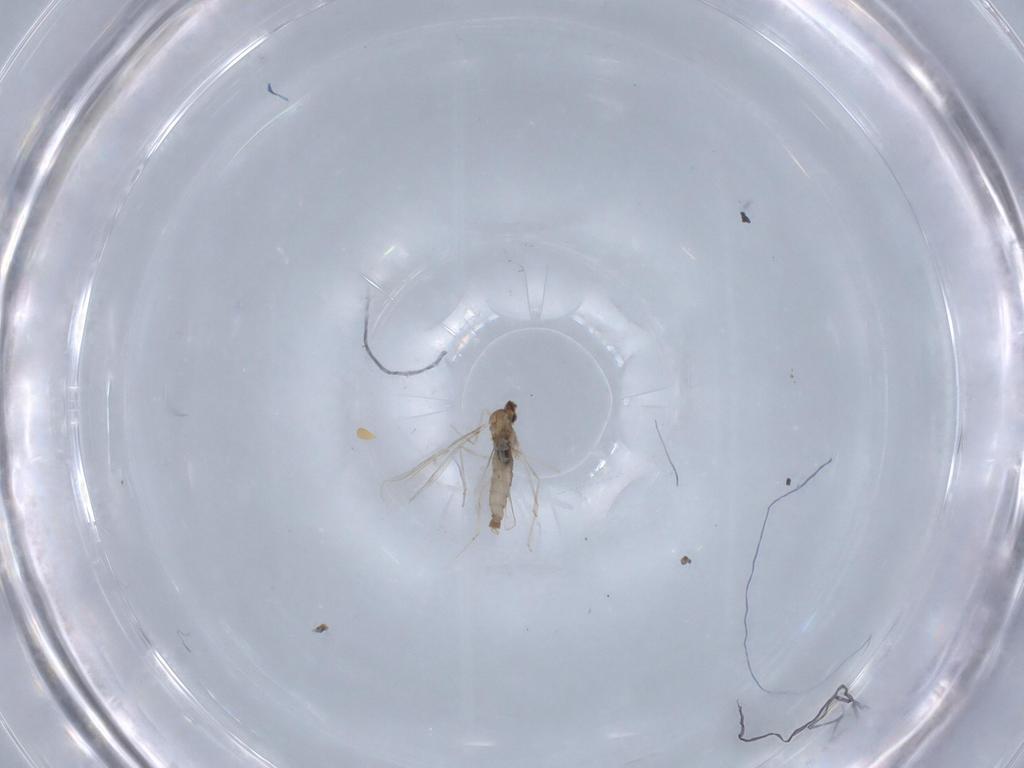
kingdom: Animalia
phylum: Arthropoda
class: Insecta
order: Diptera
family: Cecidomyiidae
